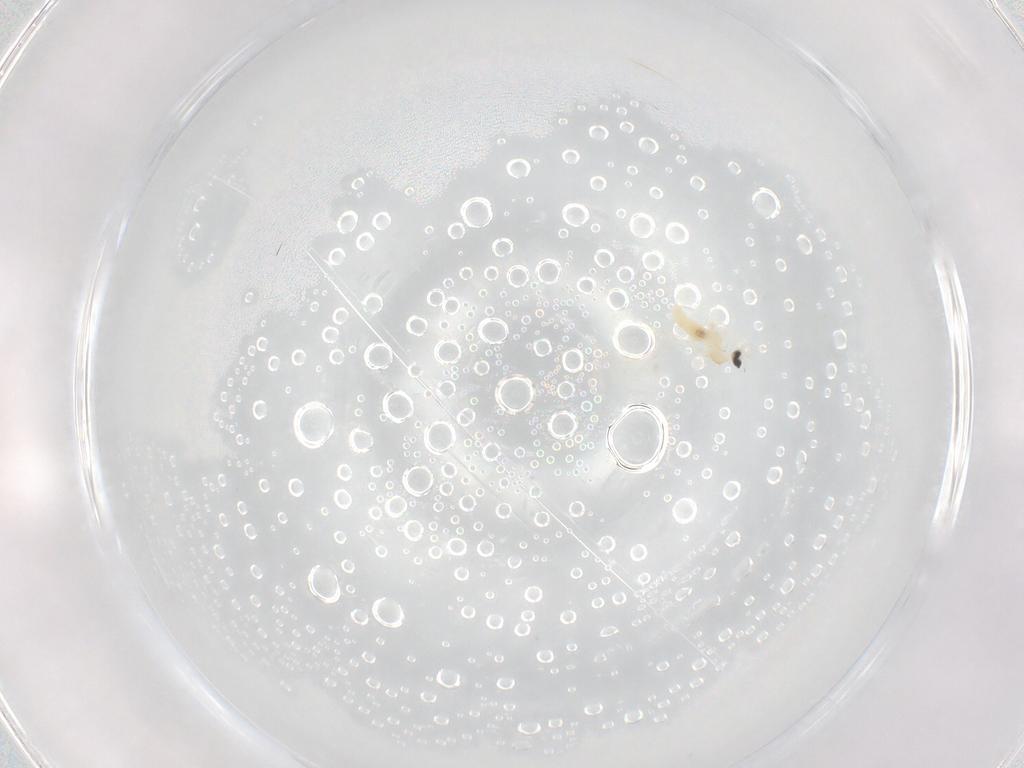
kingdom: Animalia
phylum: Arthropoda
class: Insecta
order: Diptera
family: Cecidomyiidae
